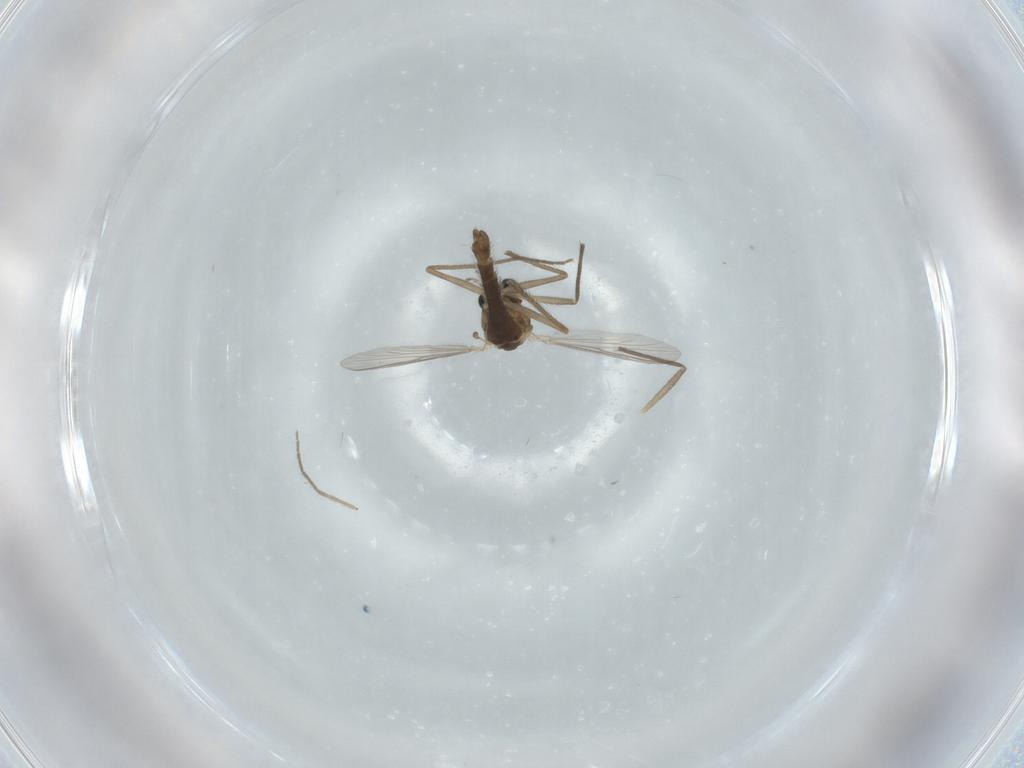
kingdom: Animalia
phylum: Arthropoda
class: Insecta
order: Diptera
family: Chironomidae
